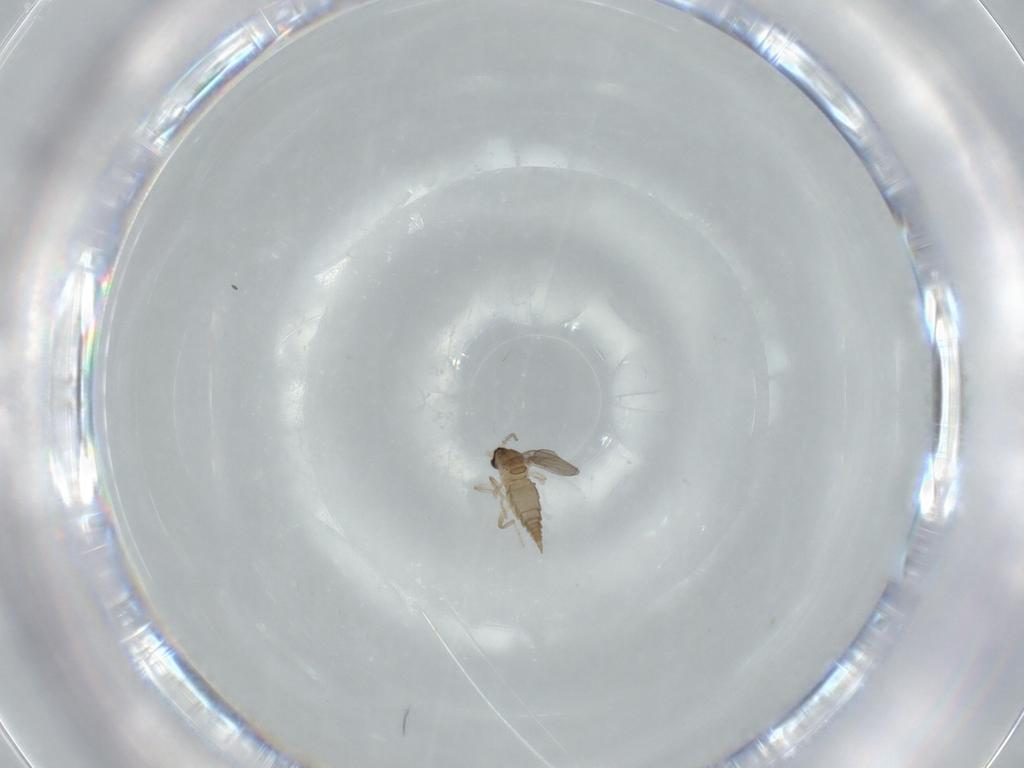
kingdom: Animalia
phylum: Arthropoda
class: Insecta
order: Diptera
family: Cecidomyiidae
